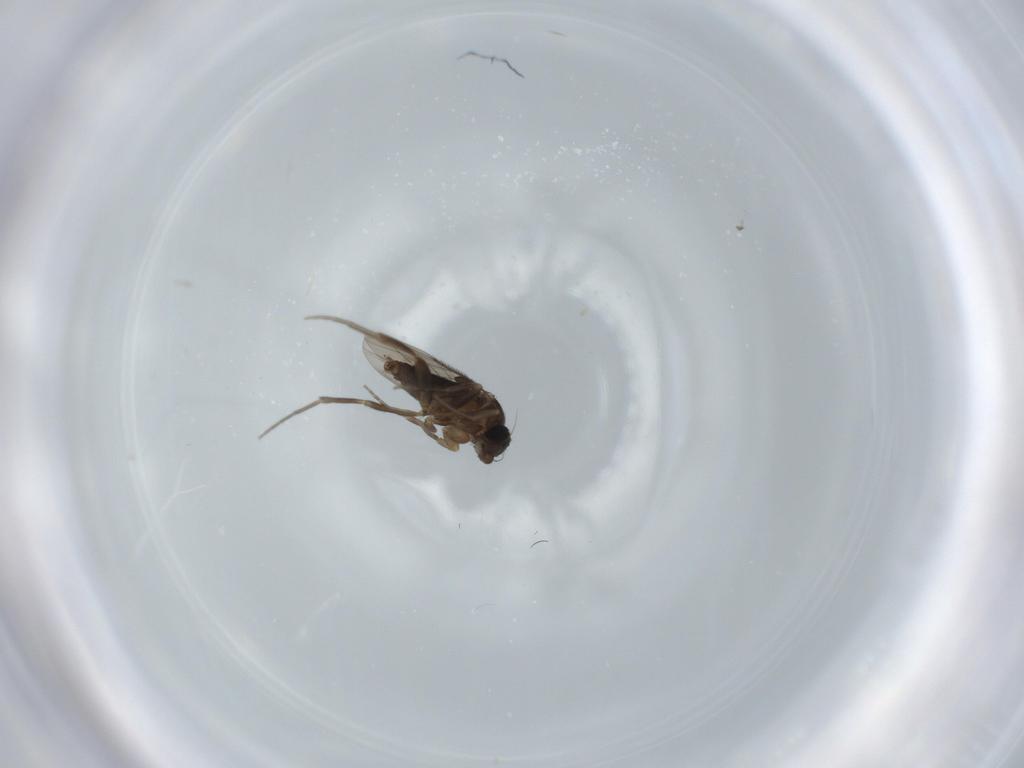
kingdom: Animalia
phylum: Arthropoda
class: Insecta
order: Diptera
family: Phoridae
